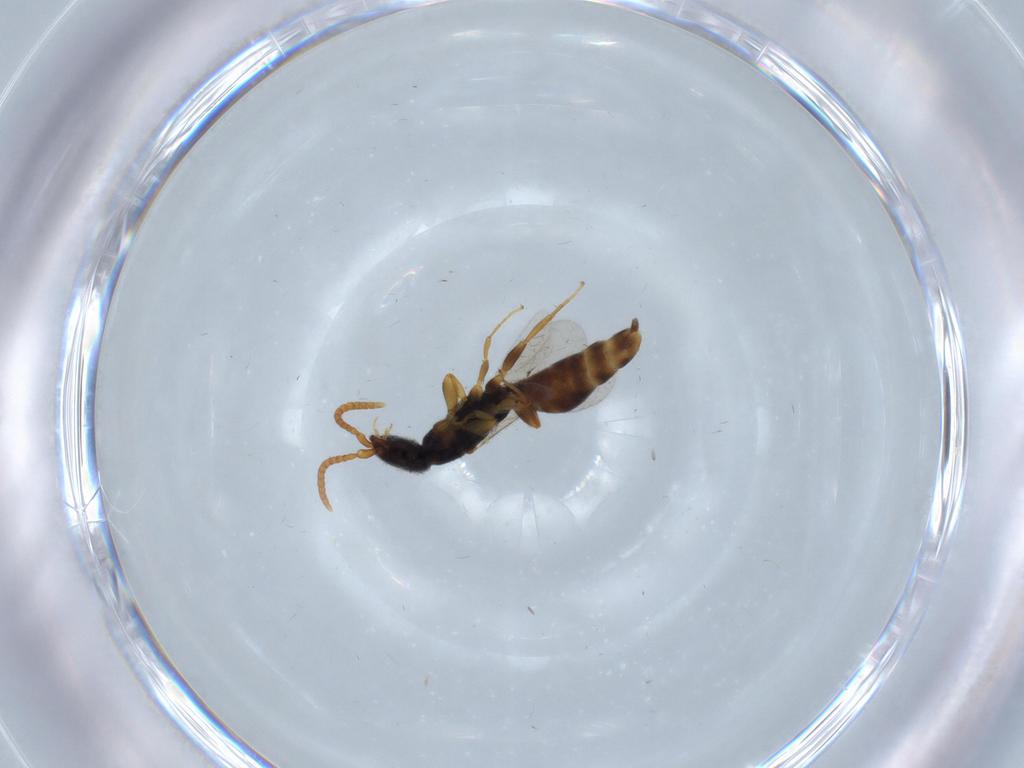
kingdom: Animalia
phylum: Arthropoda
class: Insecta
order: Hymenoptera
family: Bethylidae
